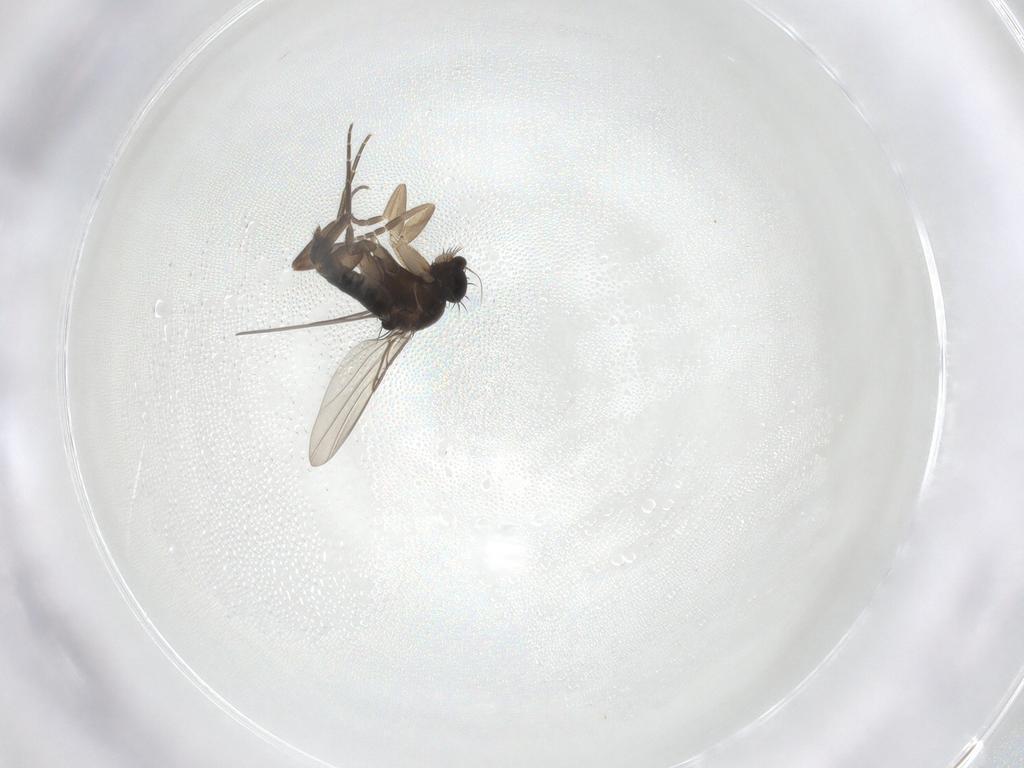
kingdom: Animalia
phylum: Arthropoda
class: Insecta
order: Diptera
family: Phoridae
